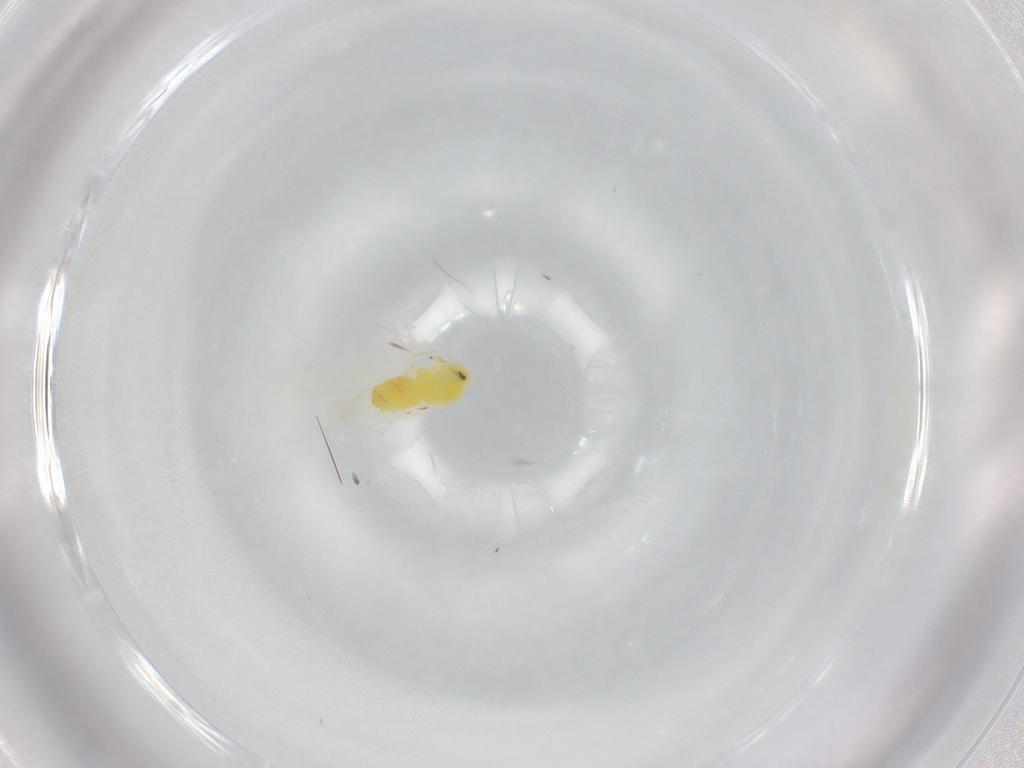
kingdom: Animalia
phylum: Arthropoda
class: Insecta
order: Hemiptera
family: Aleyrodidae
